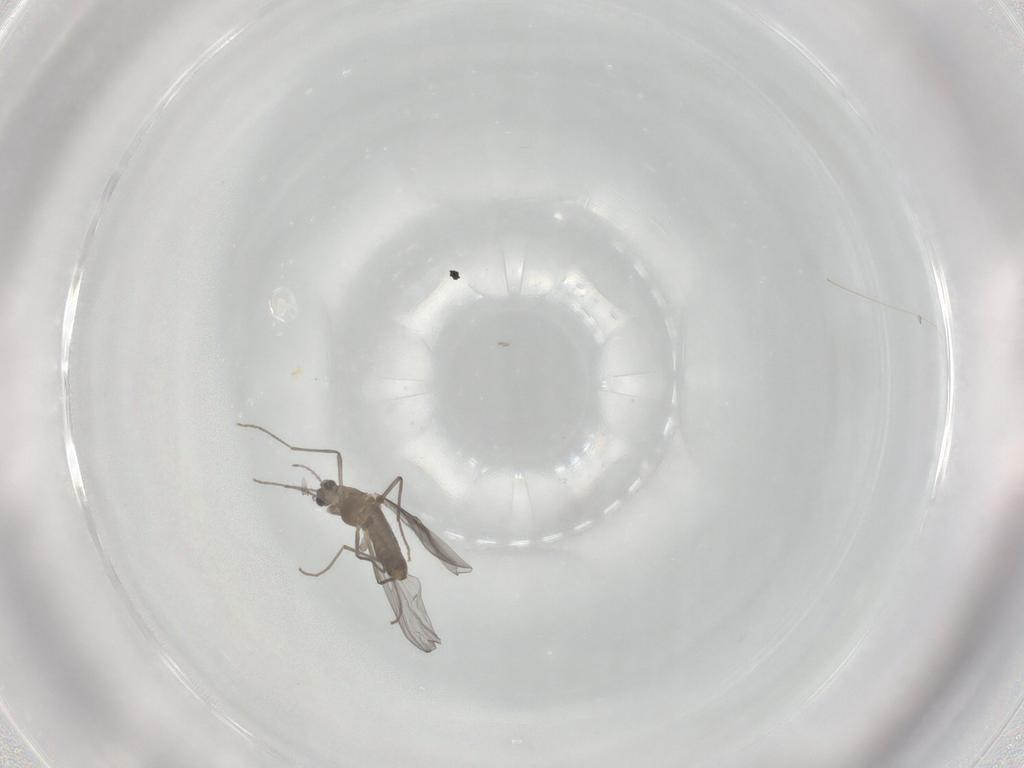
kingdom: Animalia
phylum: Arthropoda
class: Insecta
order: Diptera
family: Chironomidae
